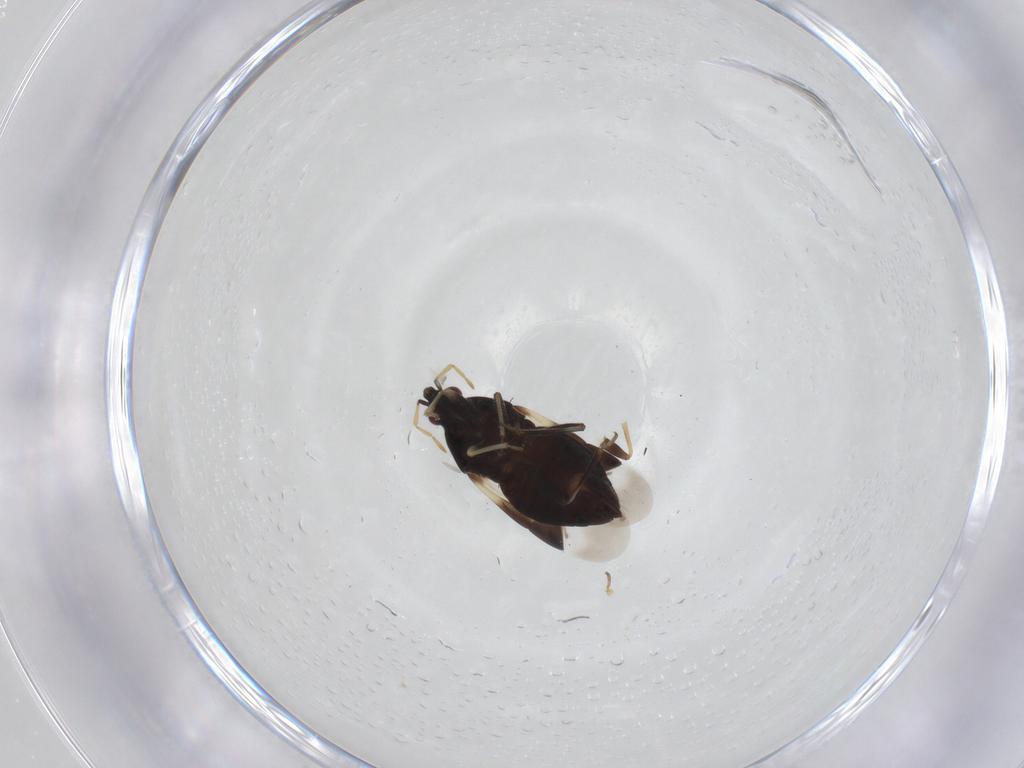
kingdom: Animalia
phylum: Arthropoda
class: Insecta
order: Hemiptera
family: Anthocoridae
